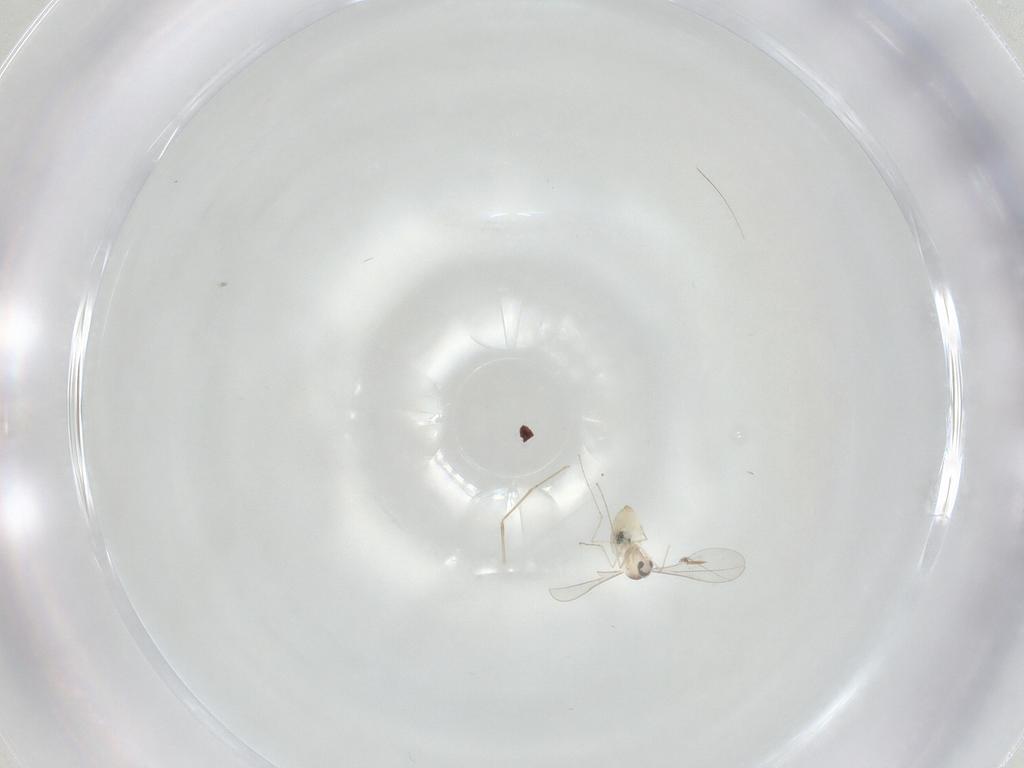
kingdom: Animalia
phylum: Arthropoda
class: Insecta
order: Diptera
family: Cecidomyiidae
